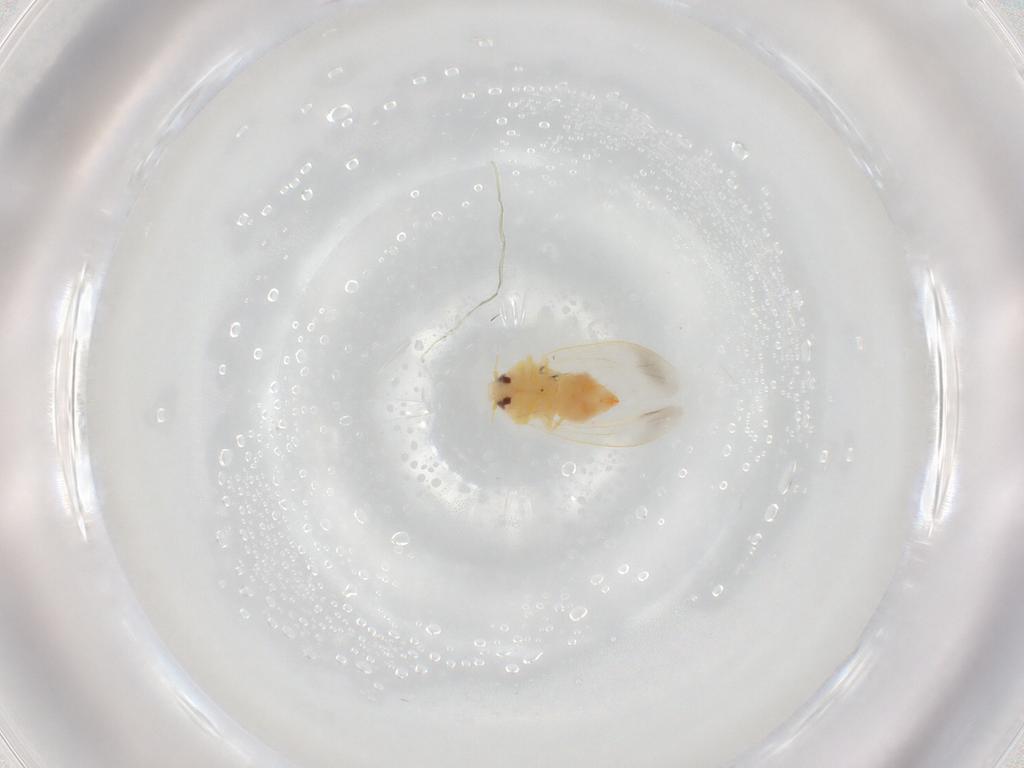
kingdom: Animalia
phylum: Arthropoda
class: Insecta
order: Hemiptera
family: Aleyrodidae
